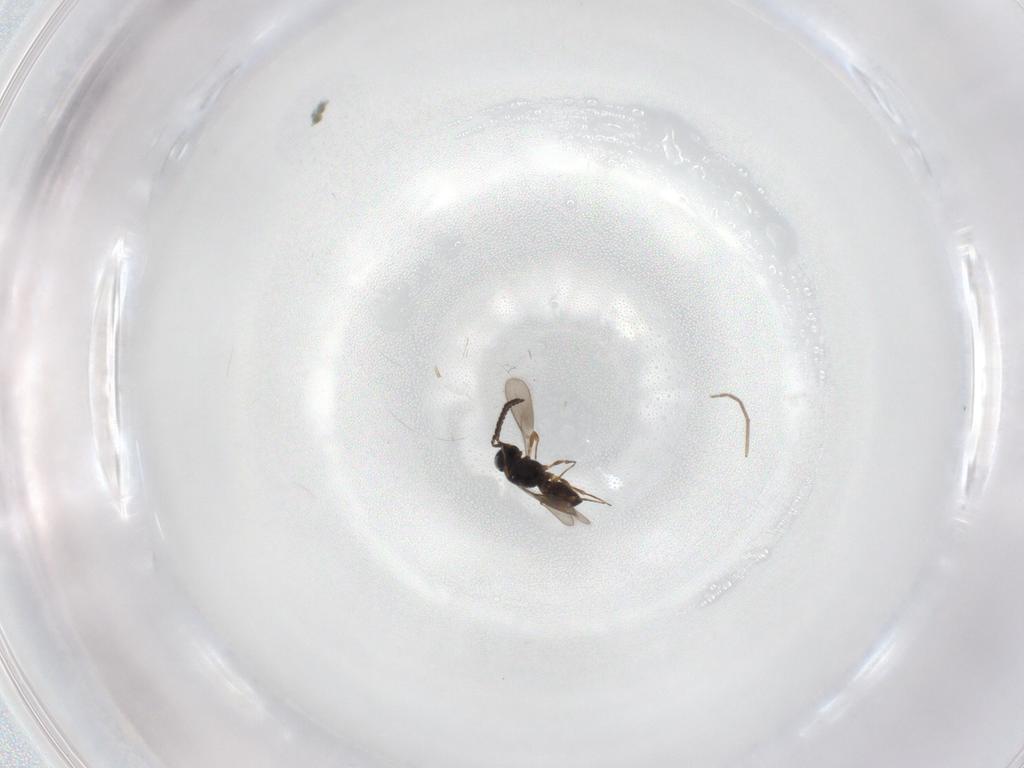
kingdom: Animalia
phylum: Arthropoda
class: Insecta
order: Hymenoptera
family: Scelionidae
